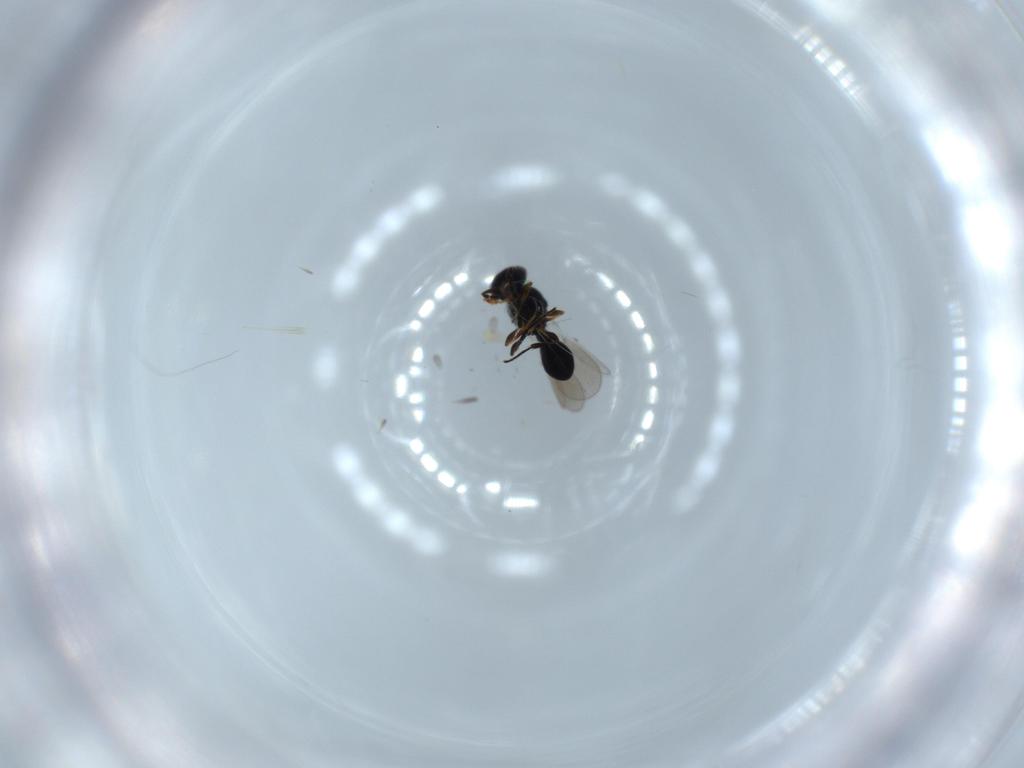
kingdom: Animalia
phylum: Arthropoda
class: Insecta
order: Hymenoptera
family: Platygastridae
